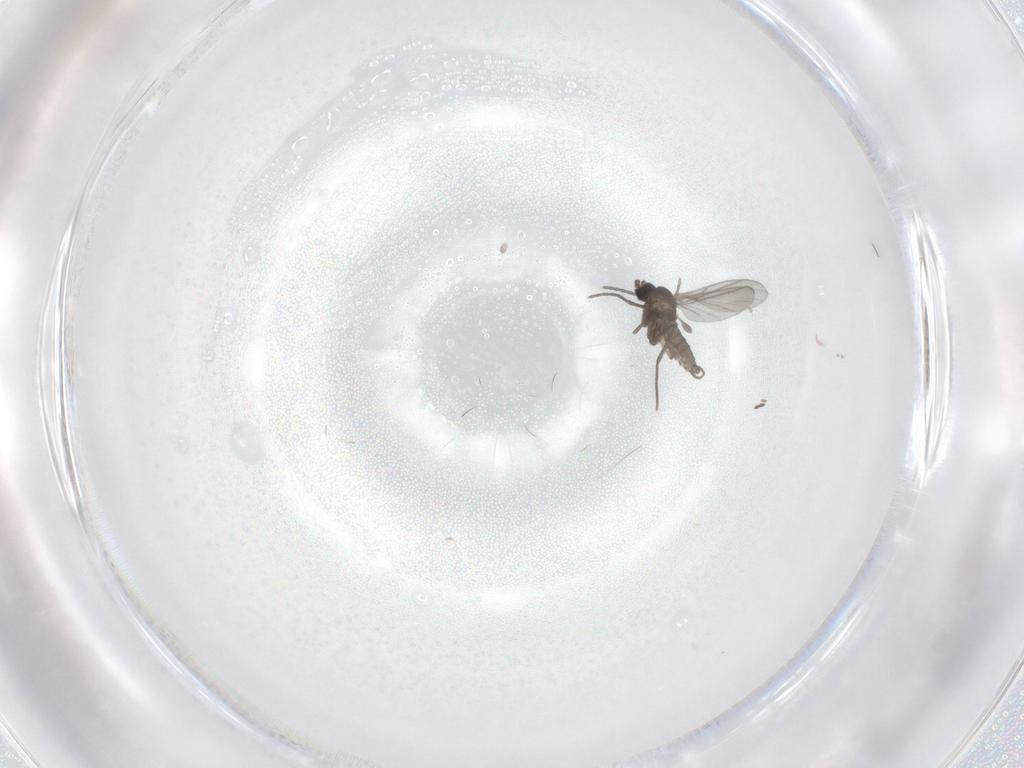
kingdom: Animalia
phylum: Arthropoda
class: Insecta
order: Diptera
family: Sciaridae
